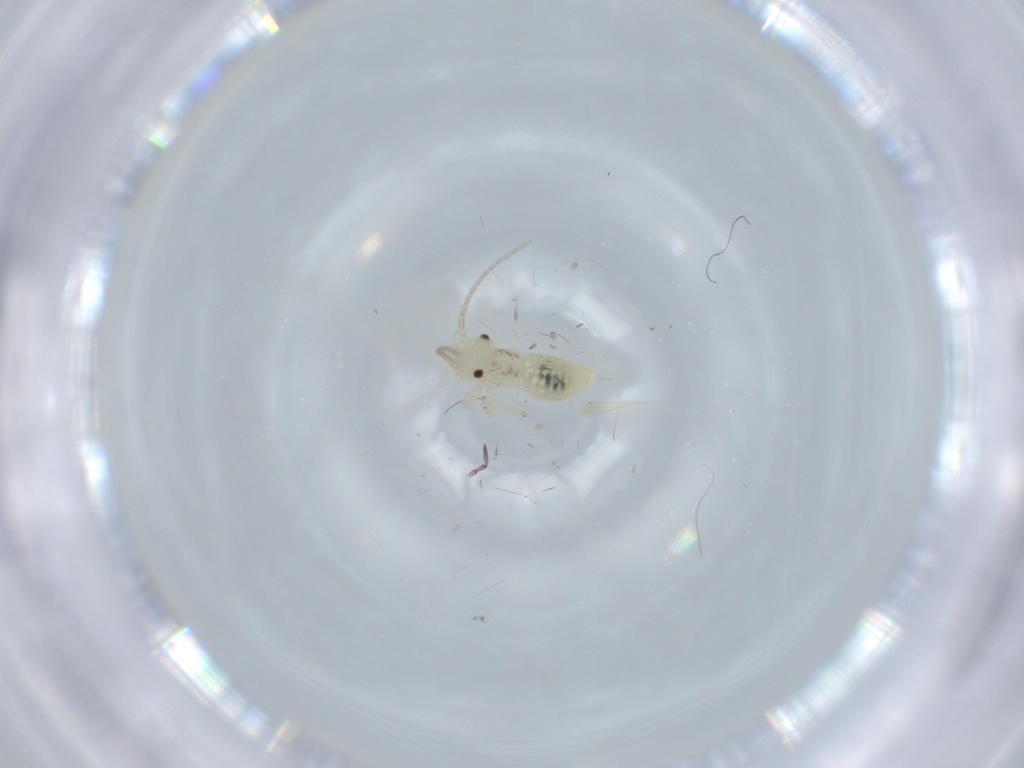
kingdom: Animalia
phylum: Arthropoda
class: Insecta
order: Psocodea
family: Caeciliusidae
